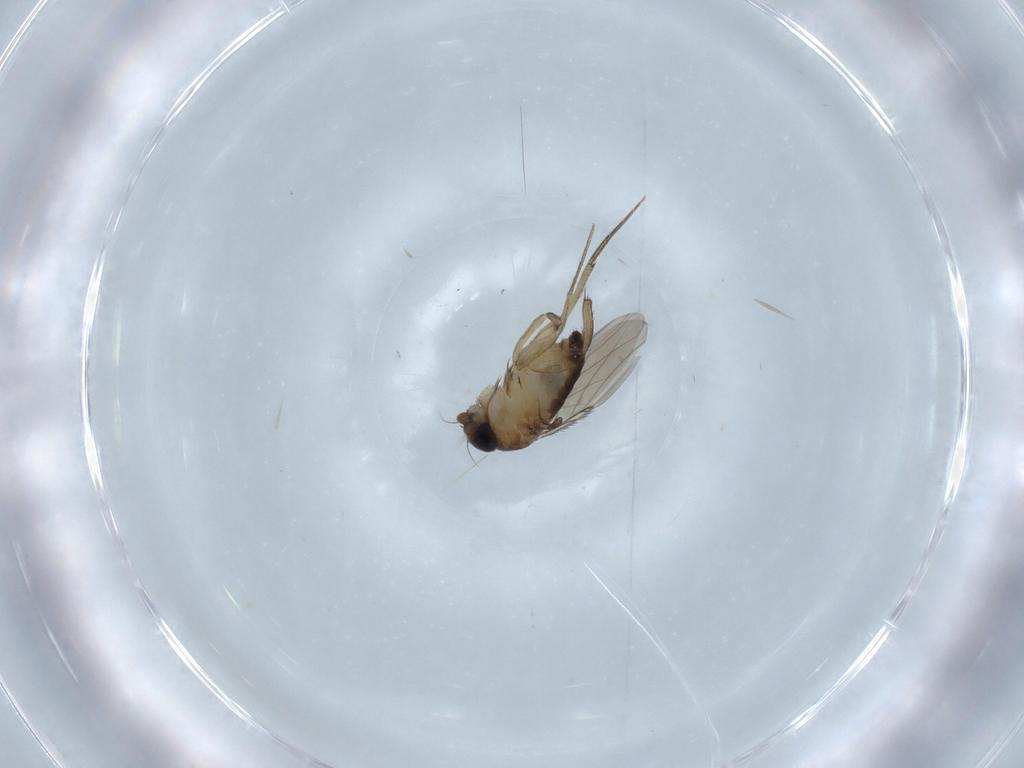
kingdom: Animalia
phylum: Arthropoda
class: Insecta
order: Diptera
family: Phoridae
